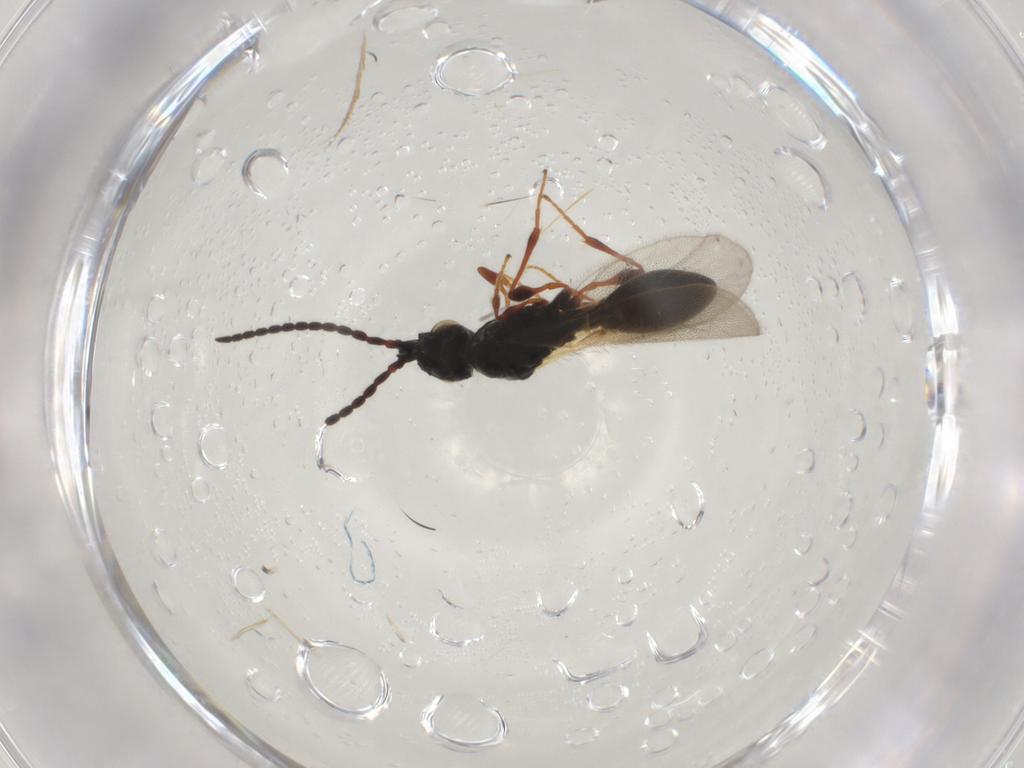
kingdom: Animalia
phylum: Arthropoda
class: Insecta
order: Hymenoptera
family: Diapriidae
